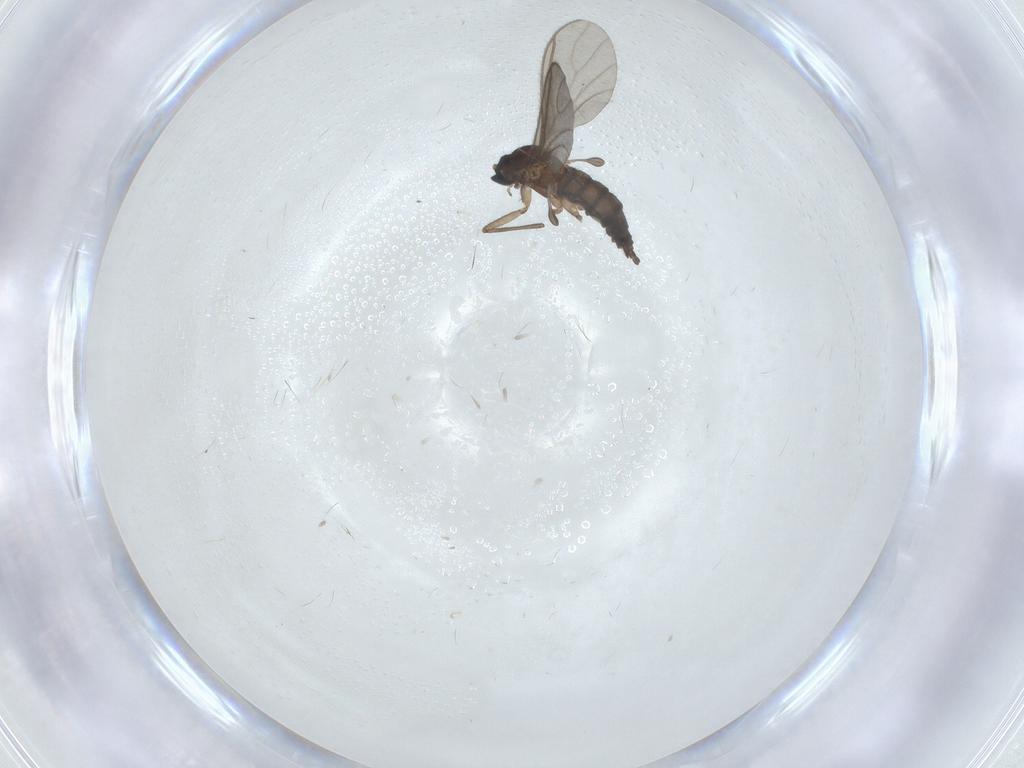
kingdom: Animalia
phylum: Arthropoda
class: Insecta
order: Diptera
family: Sciaridae
